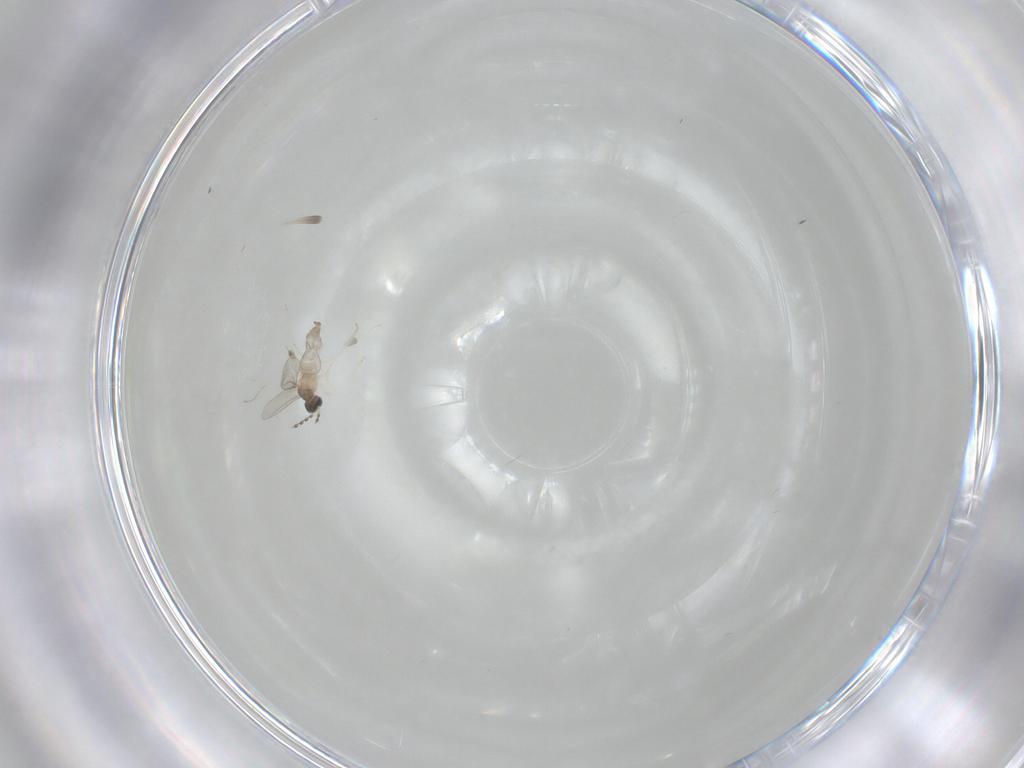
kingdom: Animalia
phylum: Arthropoda
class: Insecta
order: Diptera
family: Cecidomyiidae
